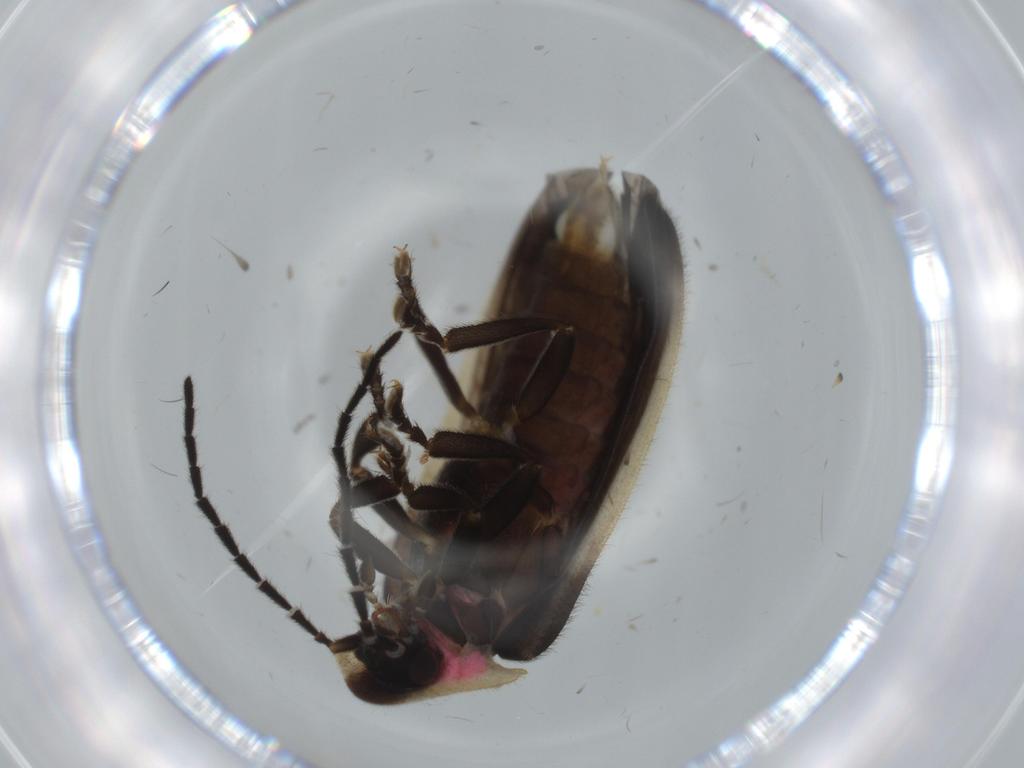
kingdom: Animalia
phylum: Arthropoda
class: Insecta
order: Coleoptera
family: Lampyridae
